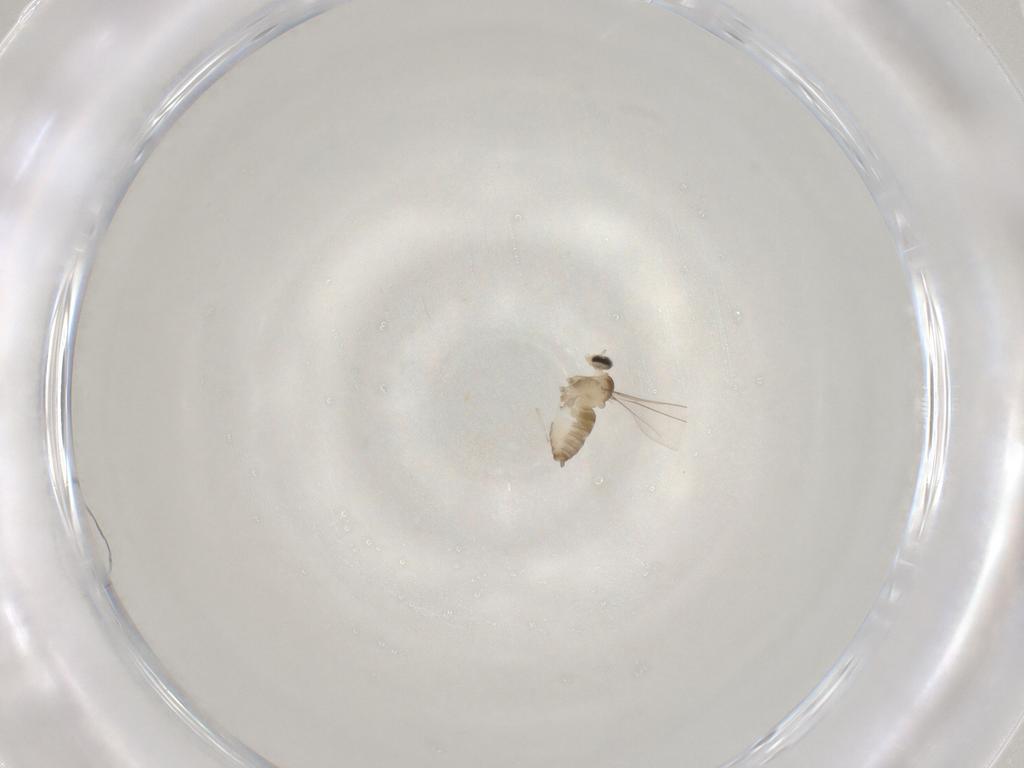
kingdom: Animalia
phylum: Arthropoda
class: Insecta
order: Diptera
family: Cecidomyiidae
